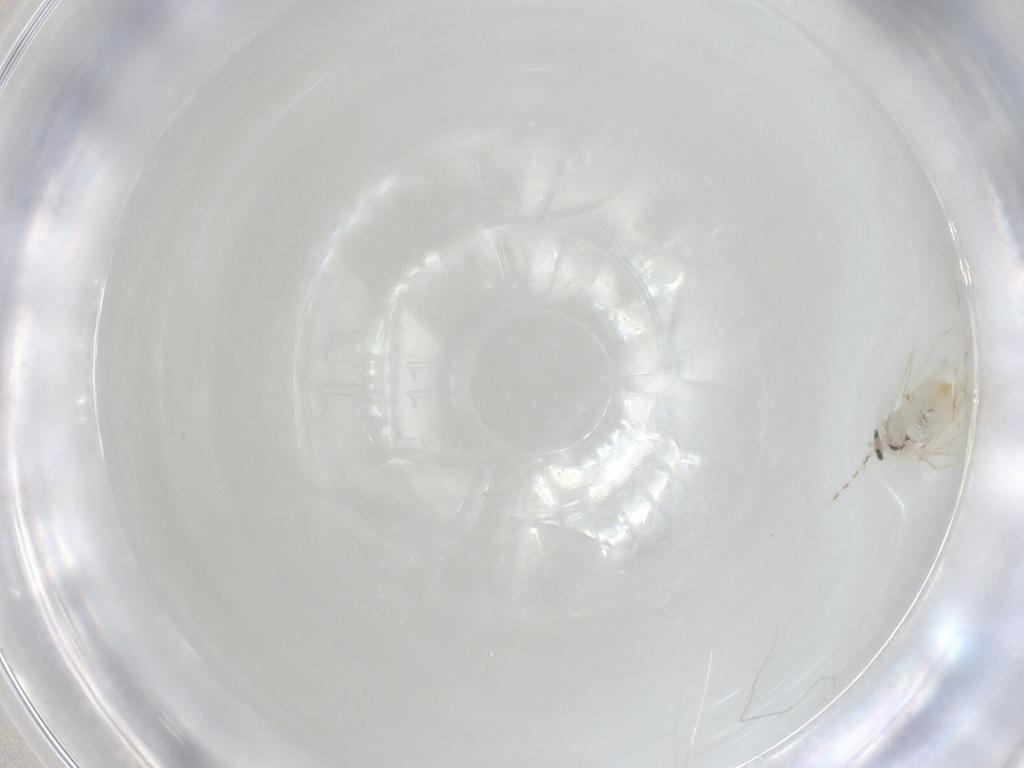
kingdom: Animalia
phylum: Arthropoda
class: Insecta
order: Diptera
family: Cecidomyiidae
